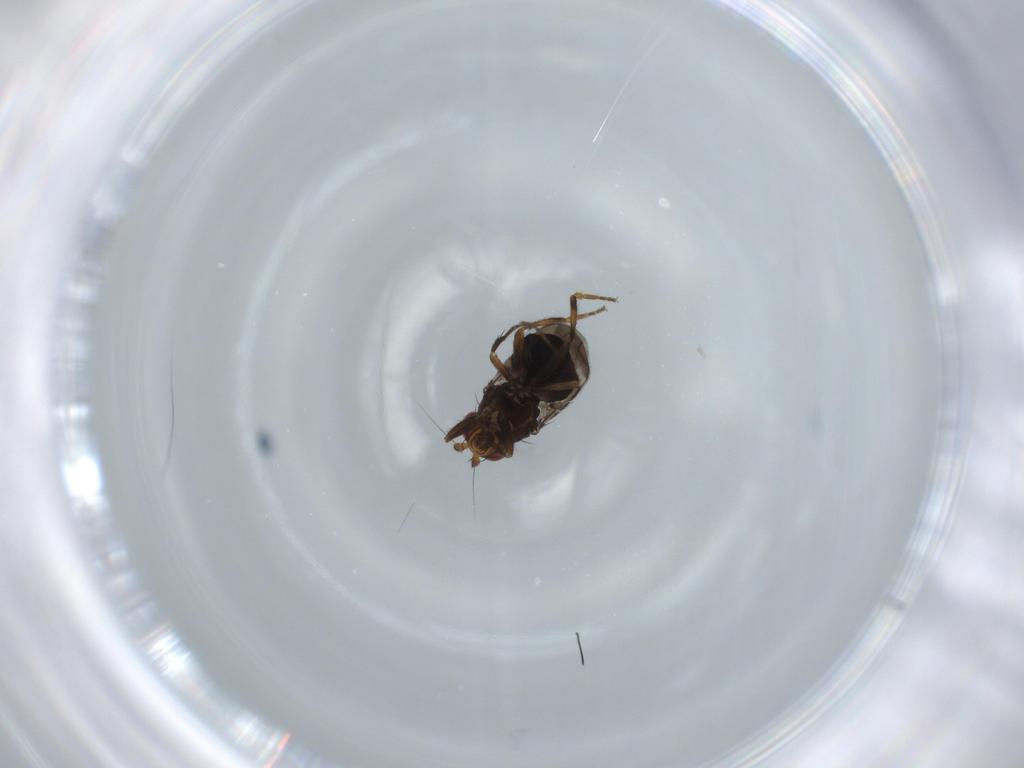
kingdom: Animalia
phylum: Arthropoda
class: Insecta
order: Diptera
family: Sphaeroceridae
